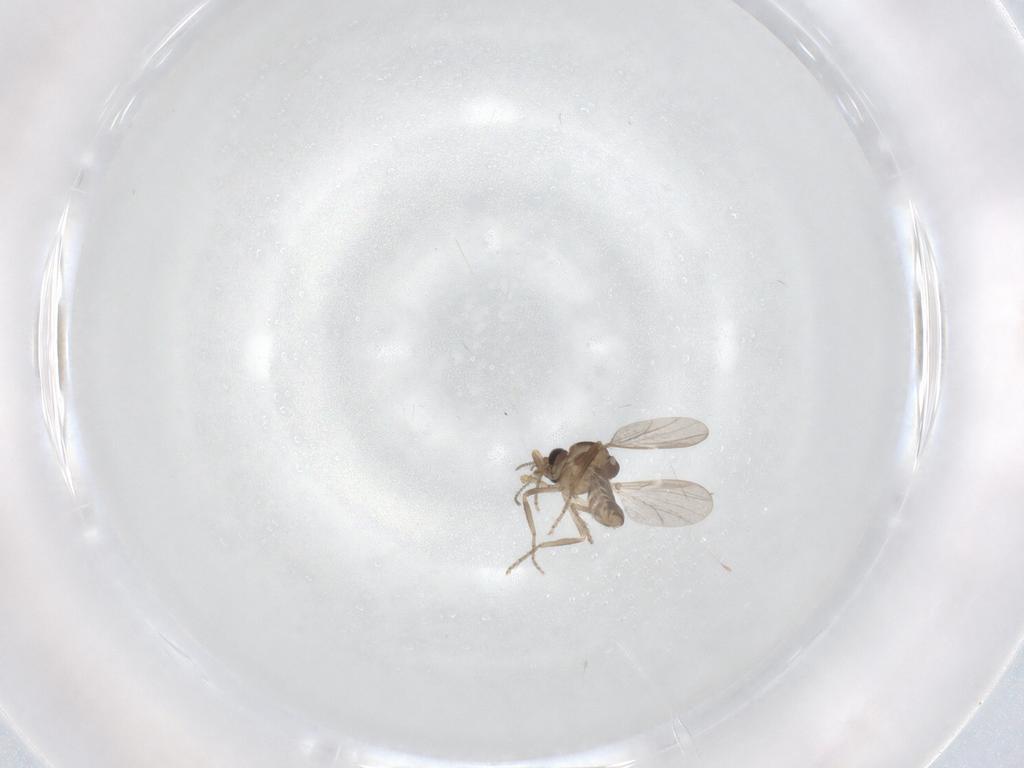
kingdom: Animalia
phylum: Arthropoda
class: Insecta
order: Diptera
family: Ceratopogonidae
